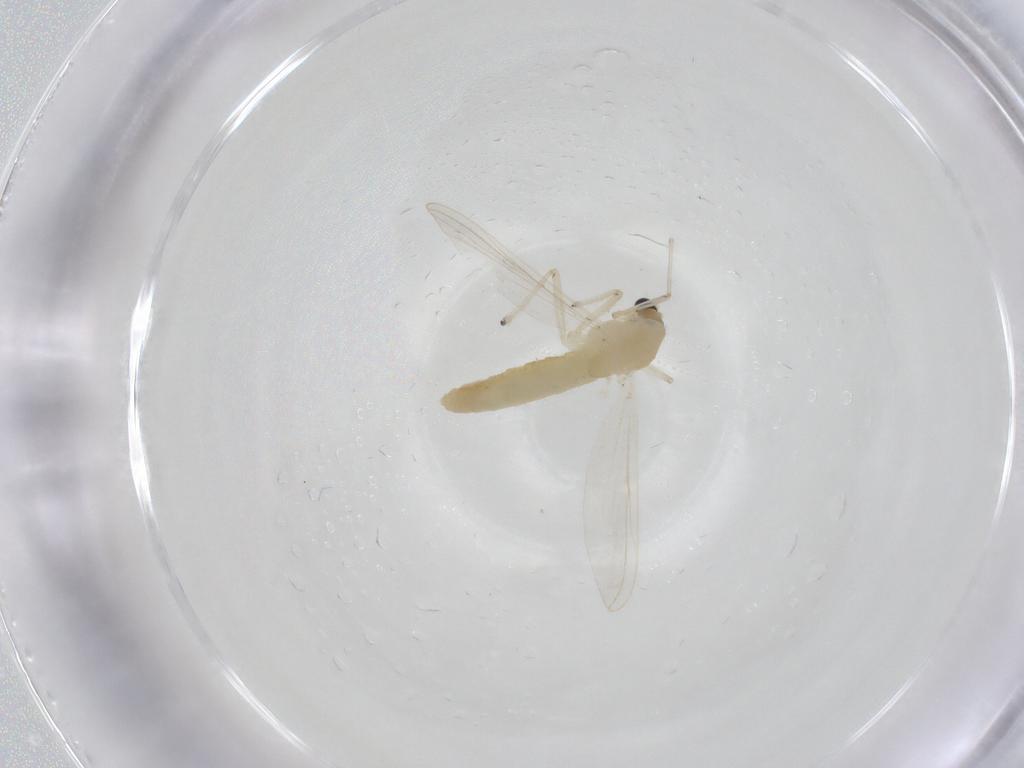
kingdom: Animalia
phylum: Arthropoda
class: Insecta
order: Diptera
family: Chironomidae
